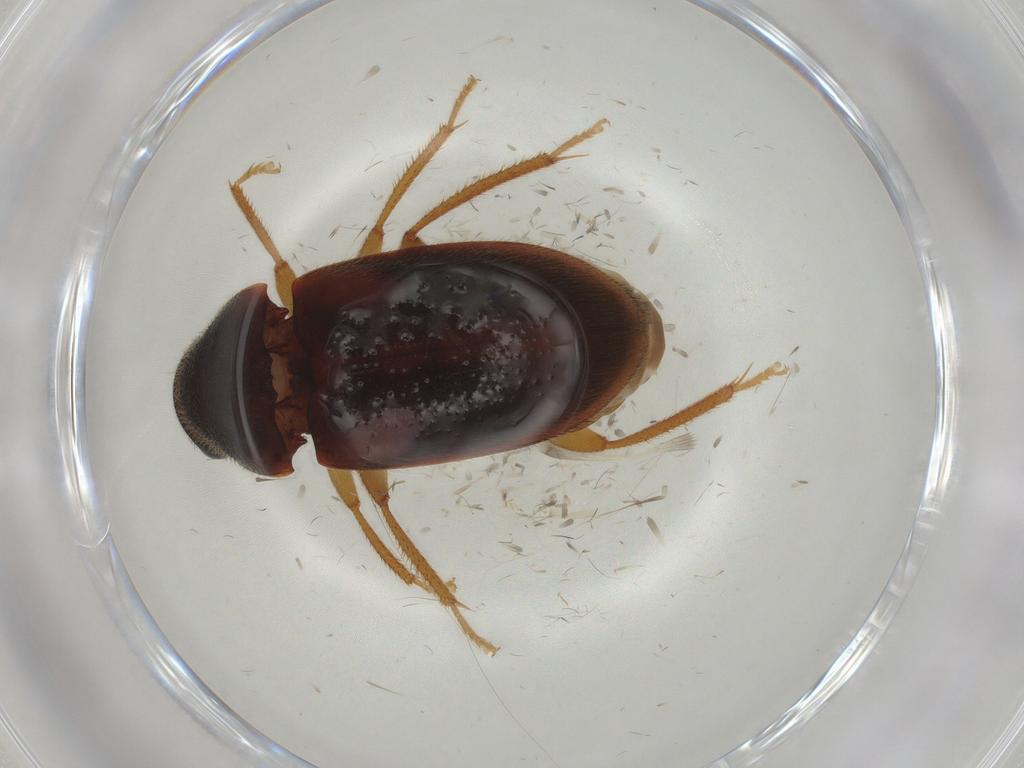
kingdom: Animalia
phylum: Arthropoda
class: Insecta
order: Coleoptera
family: Ptilodactylidae
